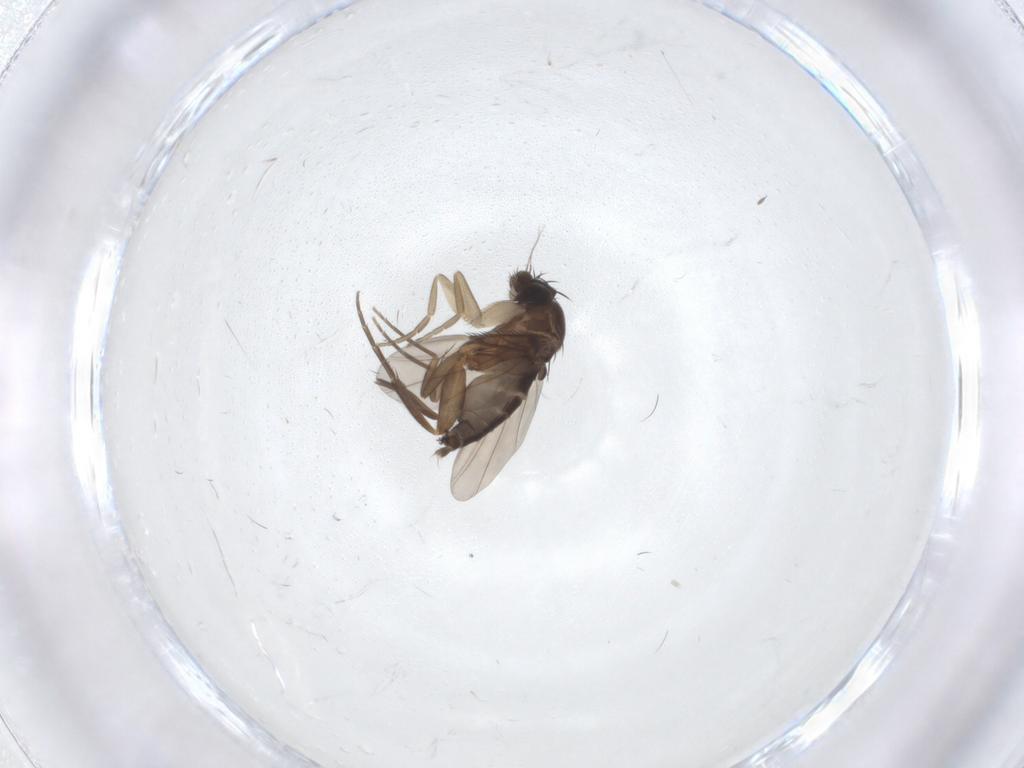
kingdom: Animalia
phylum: Arthropoda
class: Insecta
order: Diptera
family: Phoridae
